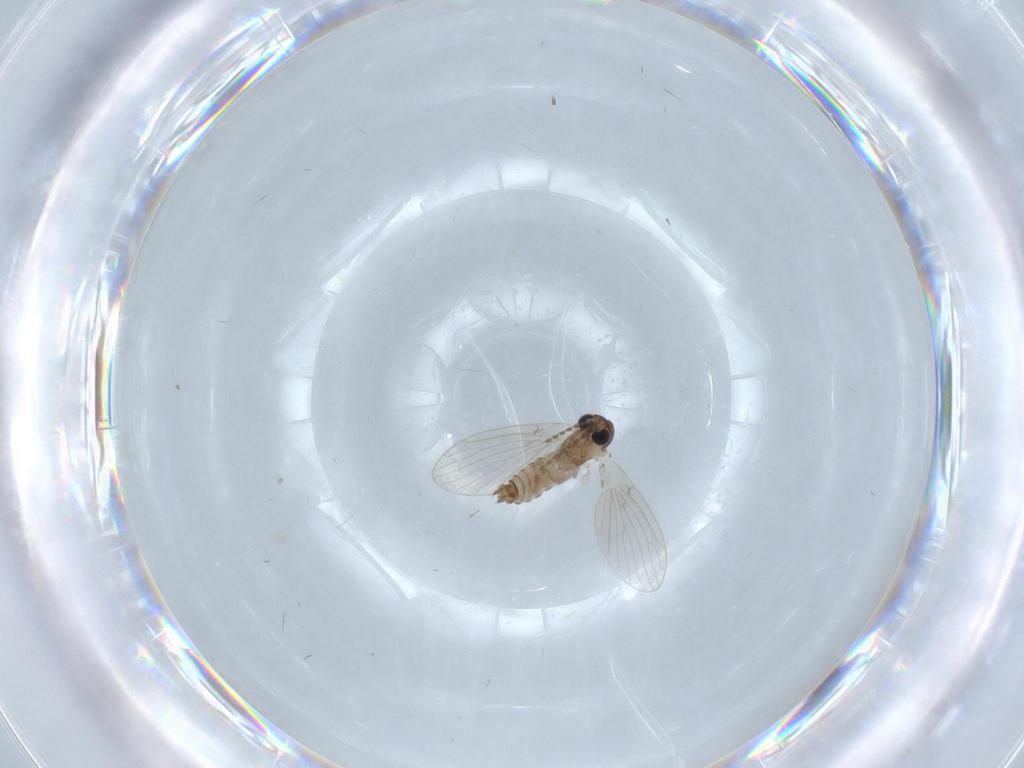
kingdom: Animalia
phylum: Arthropoda
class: Insecta
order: Diptera
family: Psychodidae
